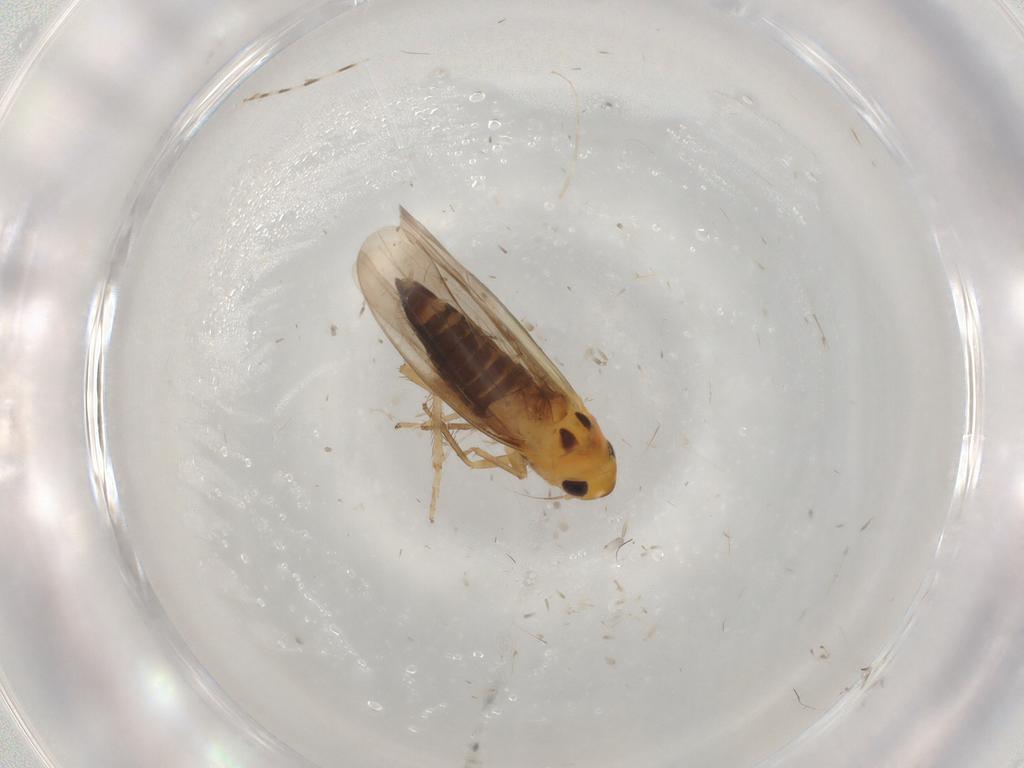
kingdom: Animalia
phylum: Arthropoda
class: Insecta
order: Hemiptera
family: Cicadellidae
